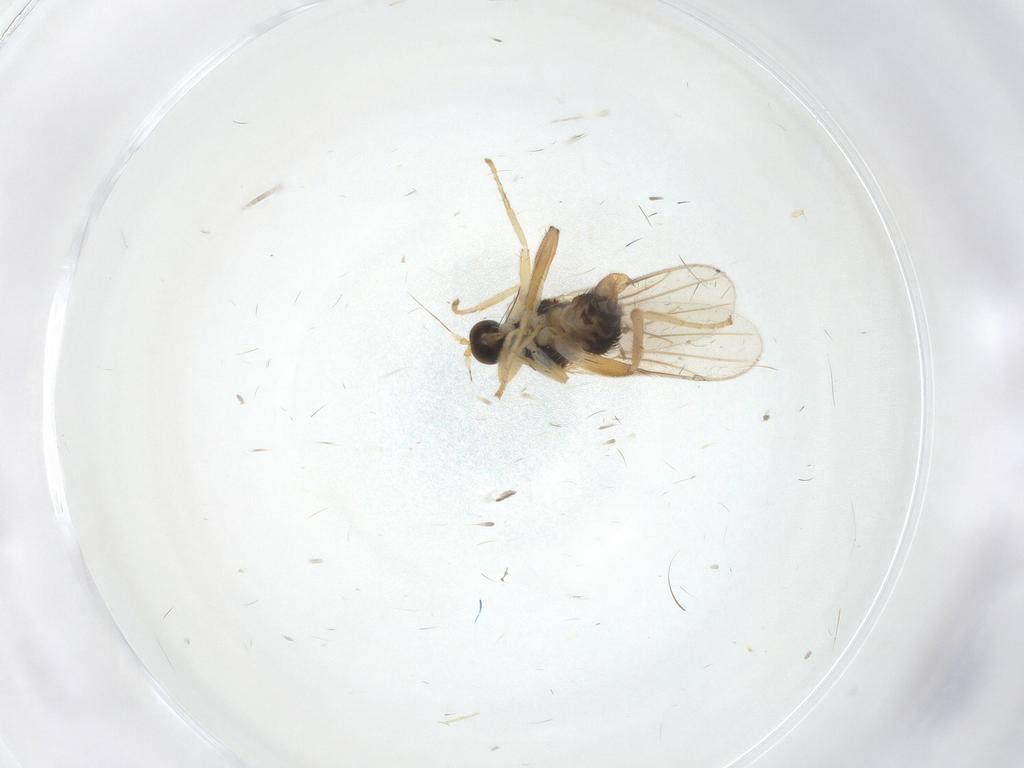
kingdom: Animalia
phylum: Arthropoda
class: Insecta
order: Diptera
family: Hybotidae
